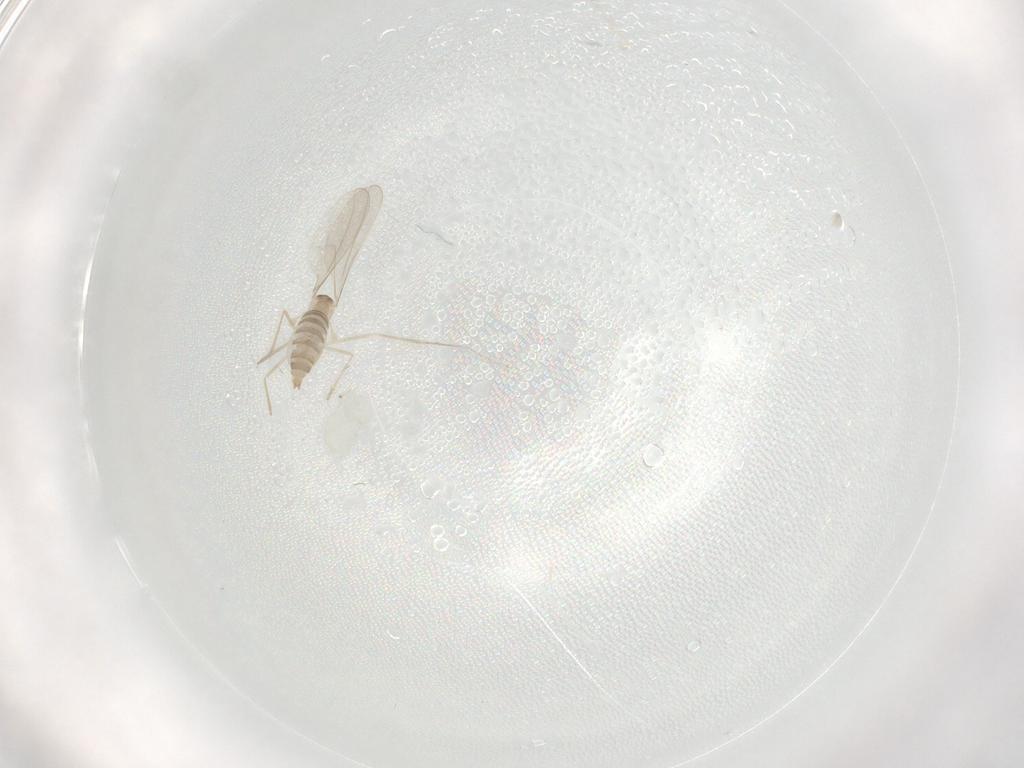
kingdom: Animalia
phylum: Arthropoda
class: Insecta
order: Diptera
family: Cecidomyiidae
